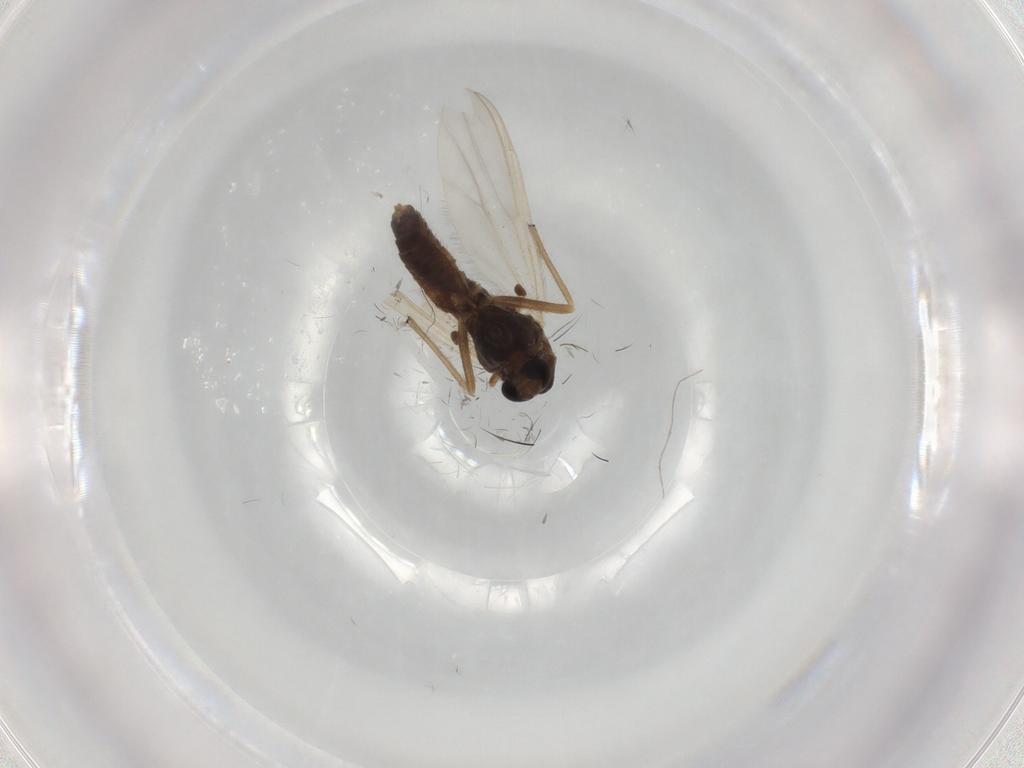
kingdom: Animalia
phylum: Arthropoda
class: Insecta
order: Diptera
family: Chironomidae
